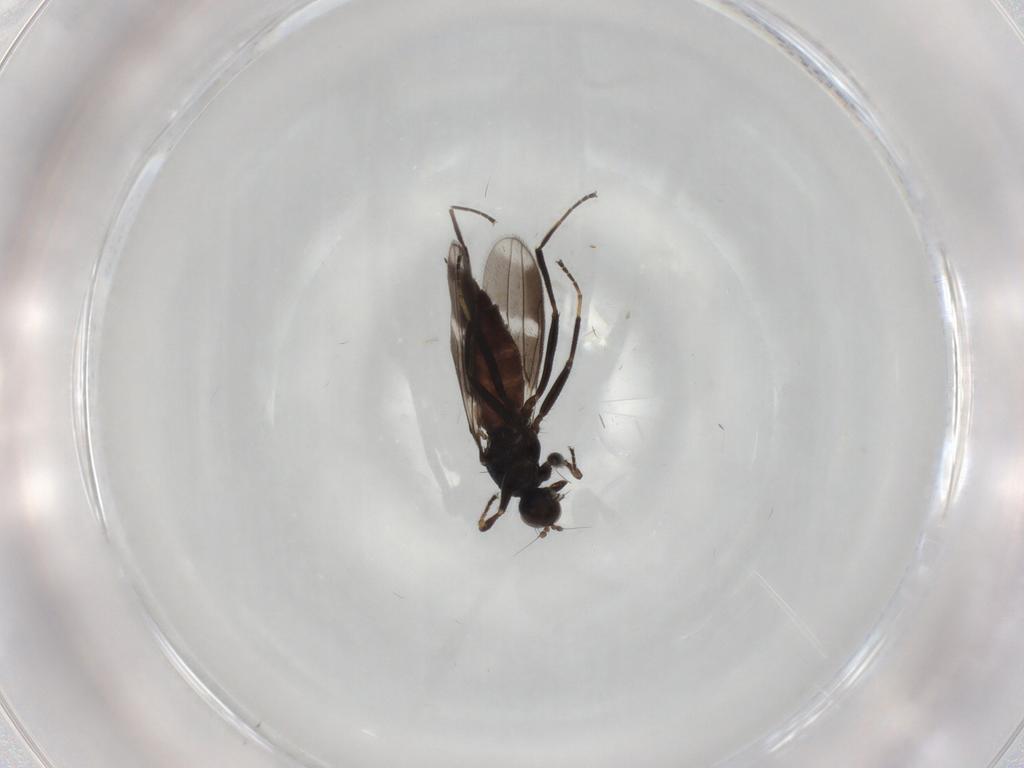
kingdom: Animalia
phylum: Arthropoda
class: Insecta
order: Diptera
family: Hybotidae
